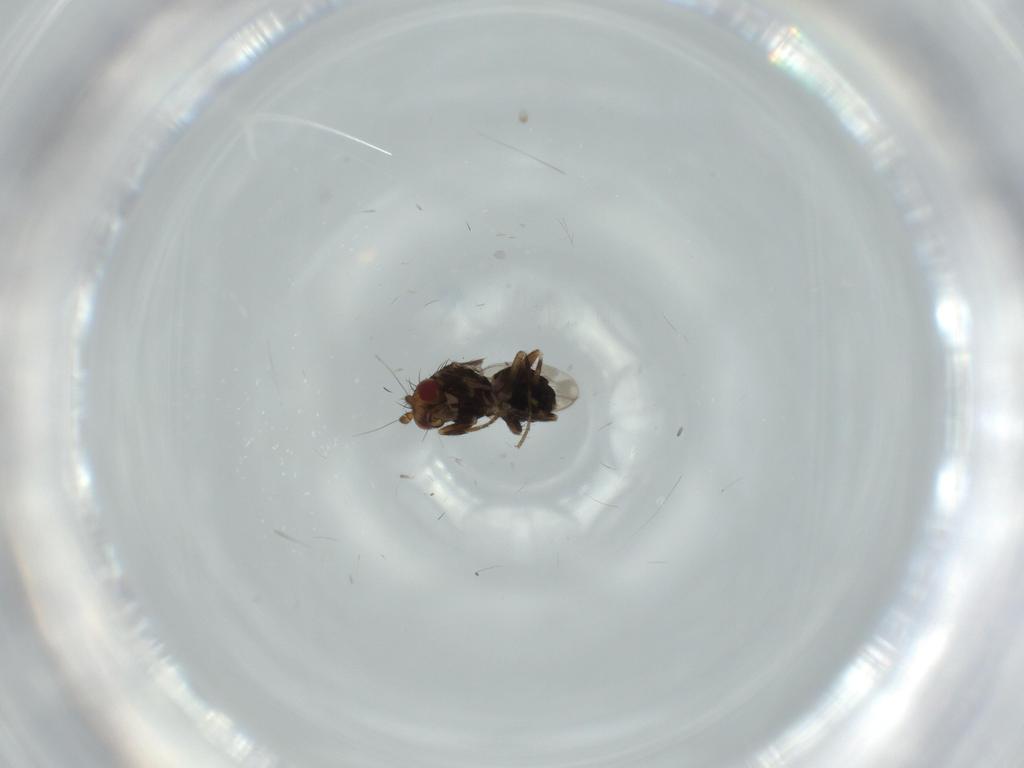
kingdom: Animalia
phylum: Arthropoda
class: Insecta
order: Diptera
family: Sphaeroceridae
